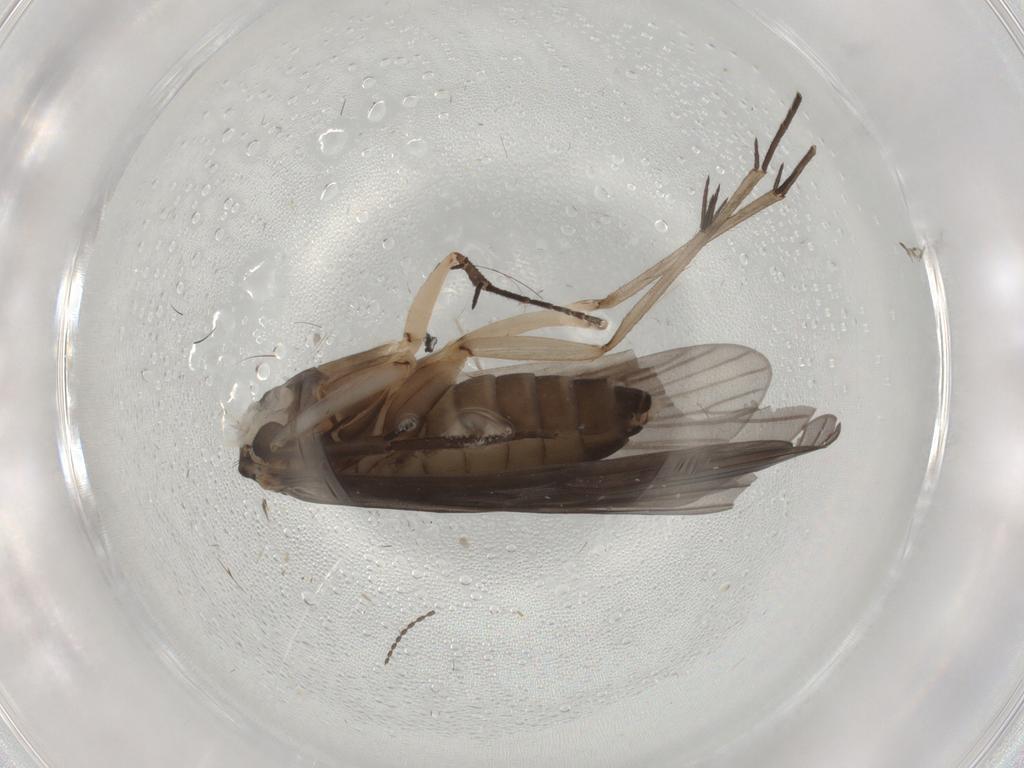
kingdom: Animalia
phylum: Arthropoda
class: Insecta
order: Trichoptera
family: Philopotamidae
